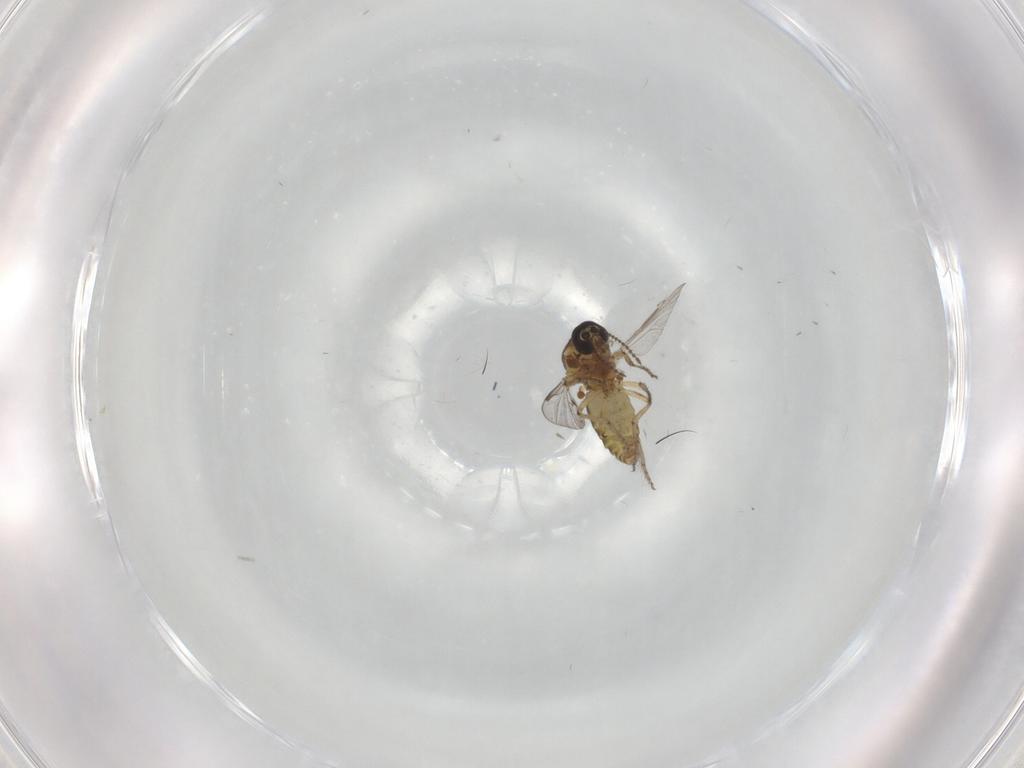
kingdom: Animalia
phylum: Arthropoda
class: Insecta
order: Diptera
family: Ceratopogonidae
